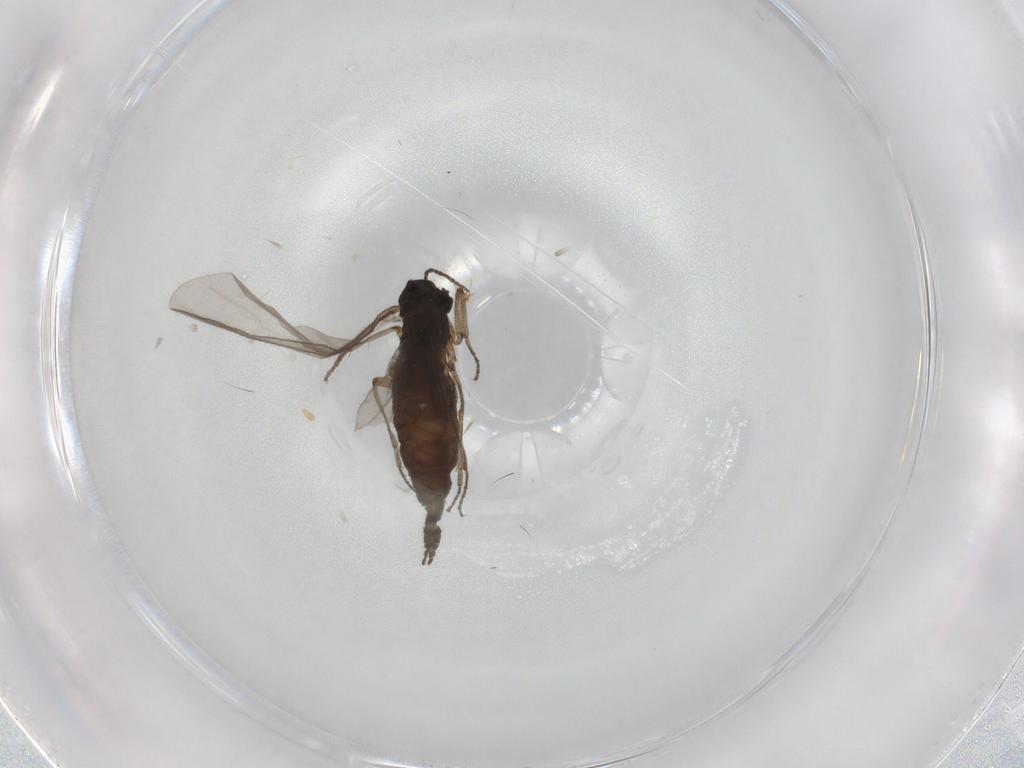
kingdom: Animalia
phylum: Arthropoda
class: Insecta
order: Diptera
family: Sciaridae
